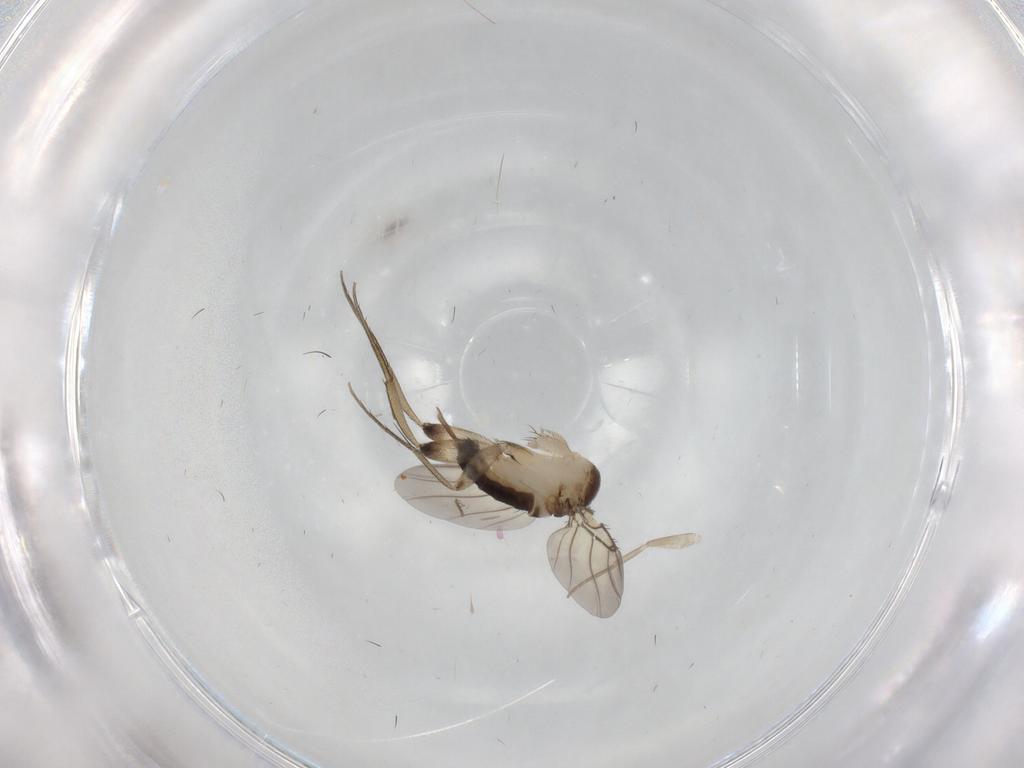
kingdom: Animalia
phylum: Arthropoda
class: Insecta
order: Diptera
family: Phoridae
